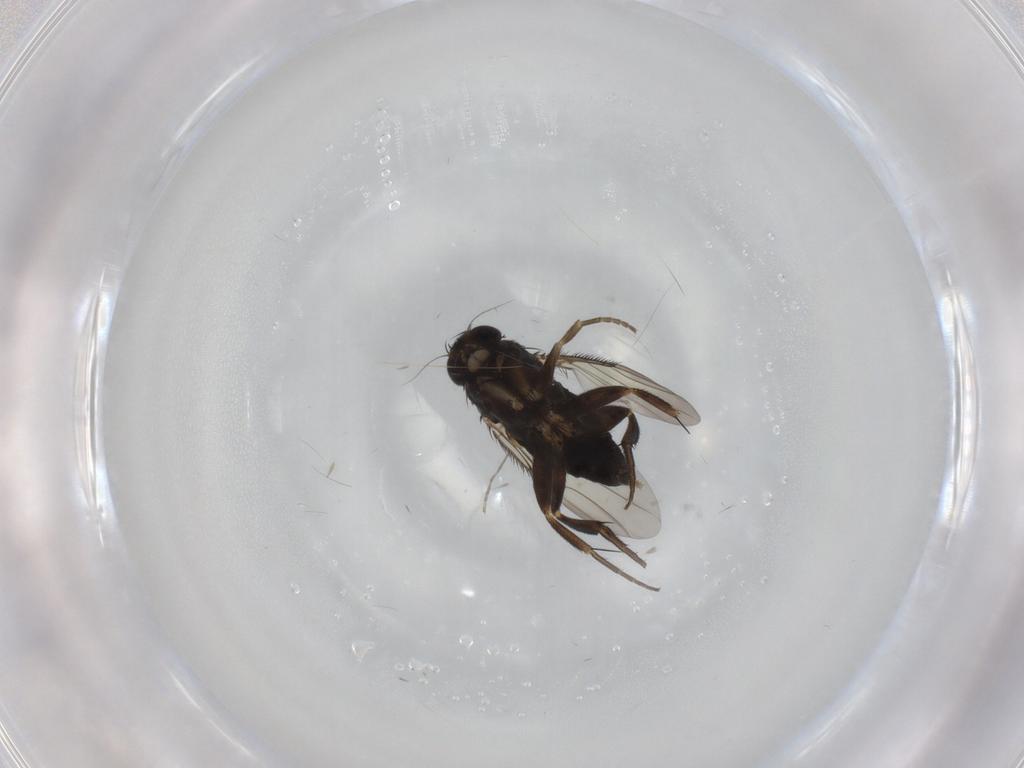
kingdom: Animalia
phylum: Arthropoda
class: Insecta
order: Diptera
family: Phoridae
